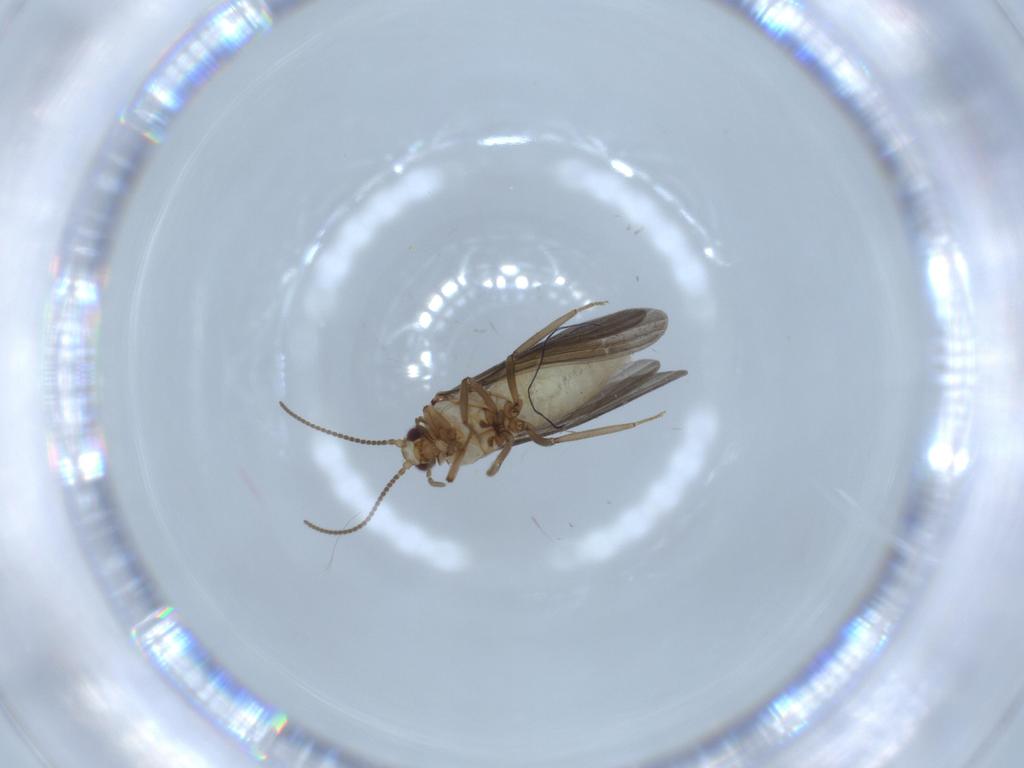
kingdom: Animalia
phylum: Arthropoda
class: Insecta
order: Neuroptera
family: Coniopterygidae
